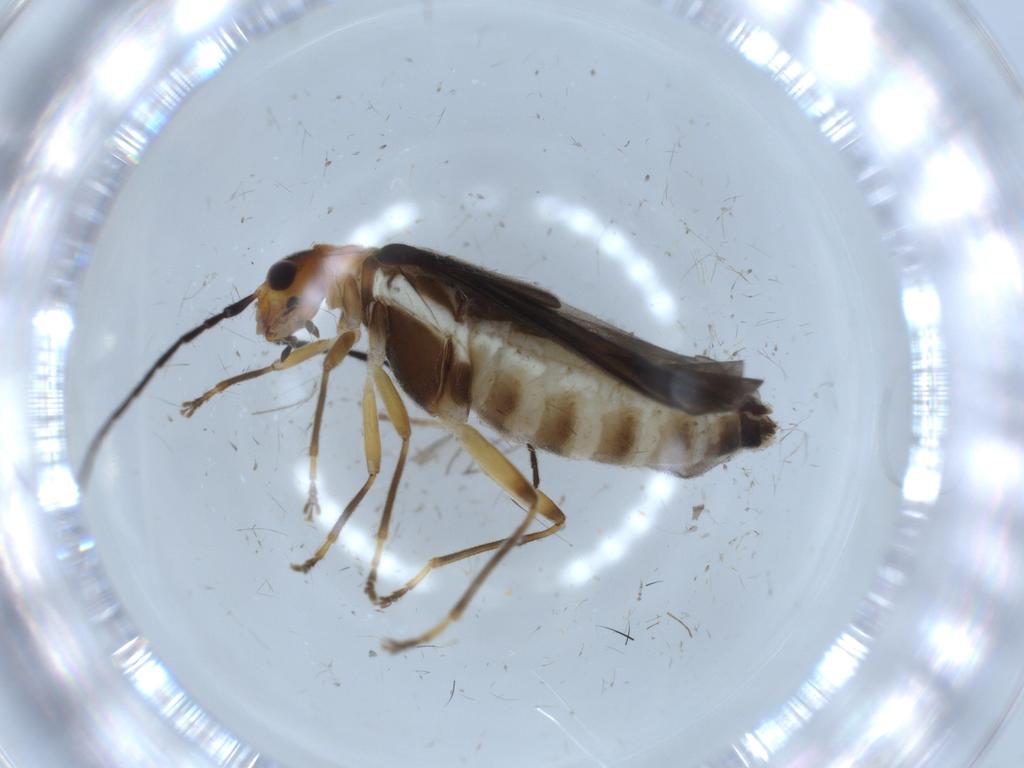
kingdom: Animalia
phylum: Arthropoda
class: Insecta
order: Coleoptera
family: Cantharidae
